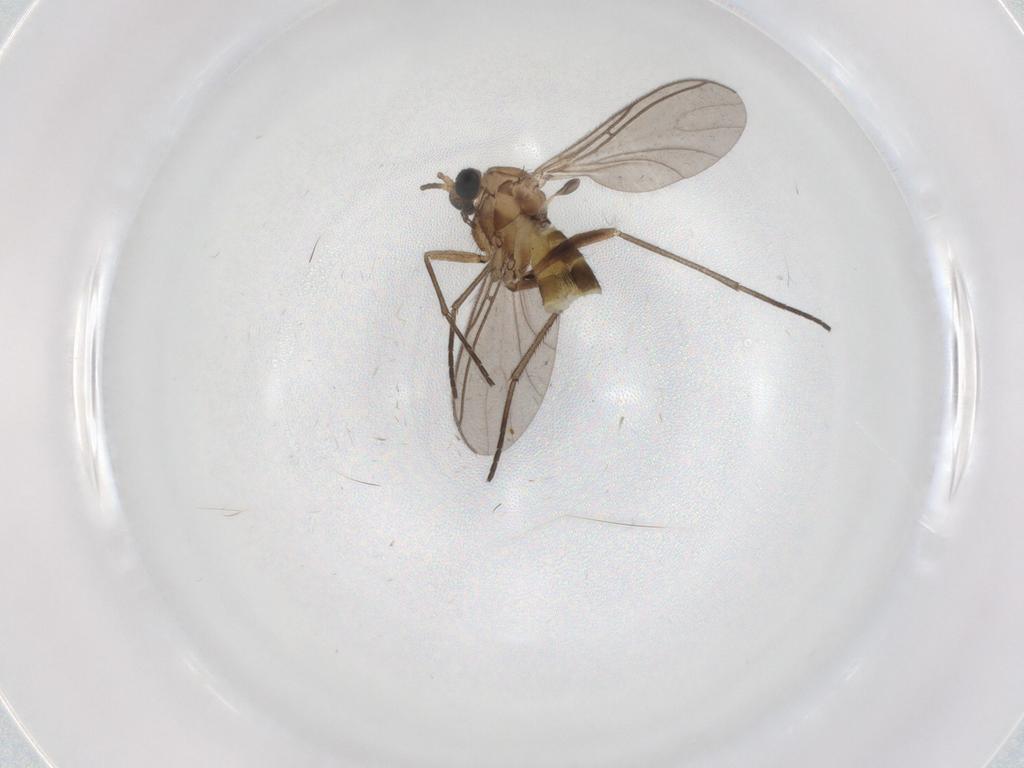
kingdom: Animalia
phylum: Arthropoda
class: Insecta
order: Diptera
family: Sciaridae
